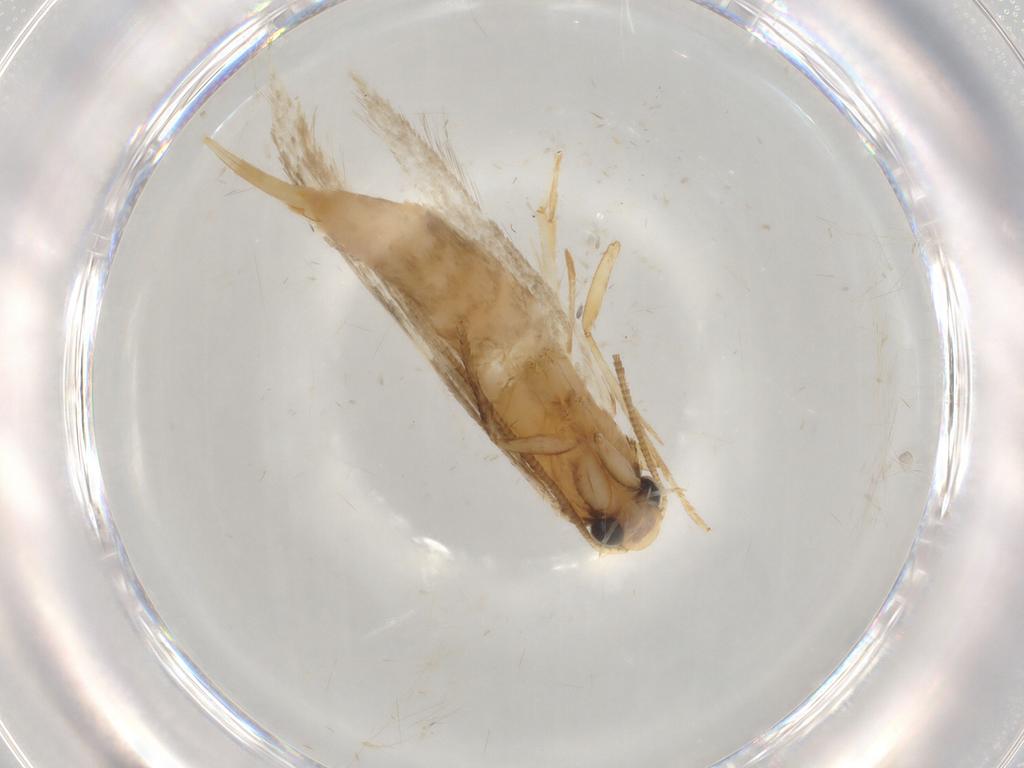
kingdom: Animalia
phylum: Arthropoda
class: Insecta
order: Lepidoptera
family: Tineidae
